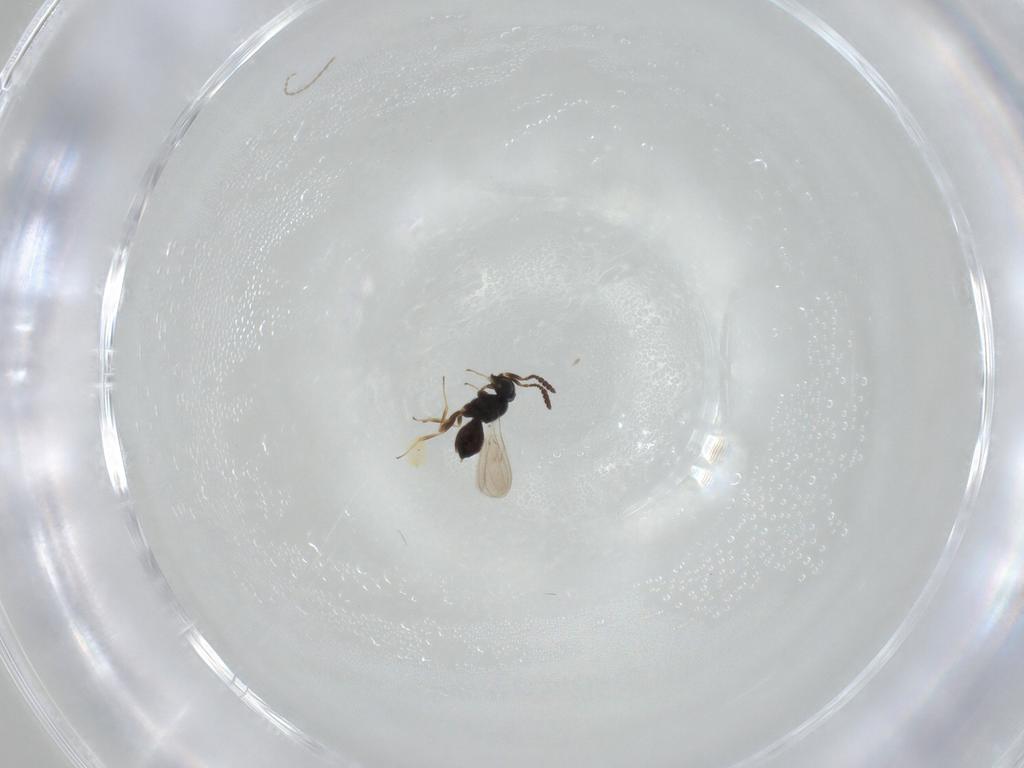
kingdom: Animalia
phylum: Arthropoda
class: Insecta
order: Hymenoptera
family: Scelionidae
